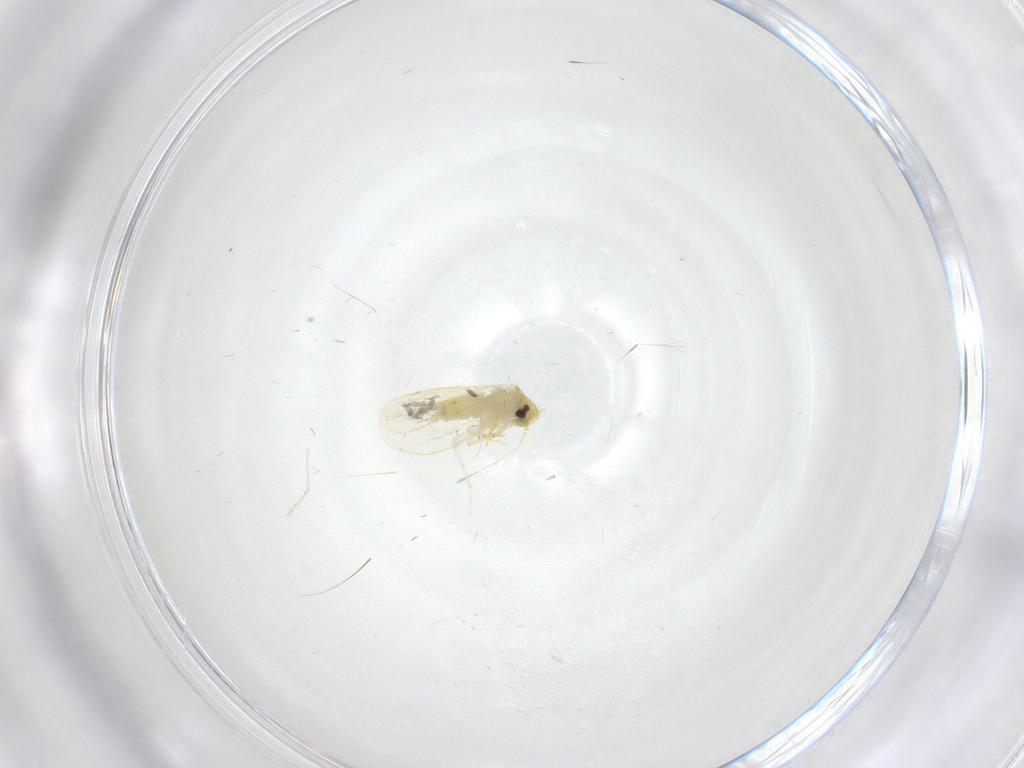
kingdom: Animalia
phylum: Arthropoda
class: Insecta
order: Hemiptera
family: Aleyrodidae
